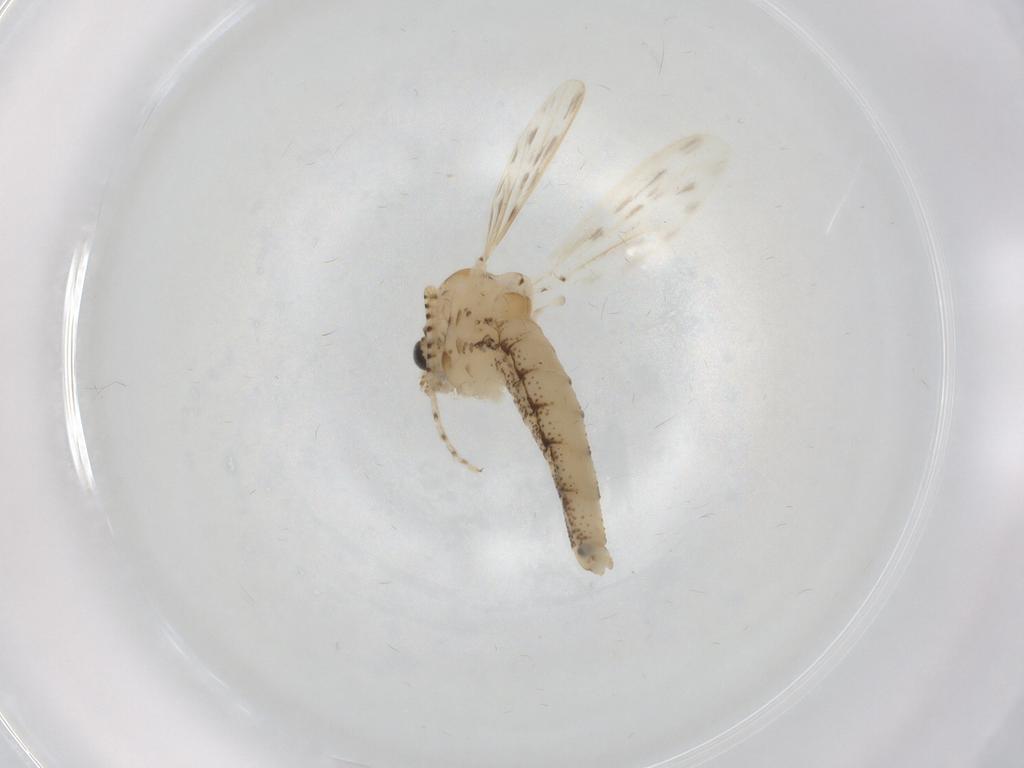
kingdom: Animalia
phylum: Arthropoda
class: Insecta
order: Diptera
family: Chaoboridae
